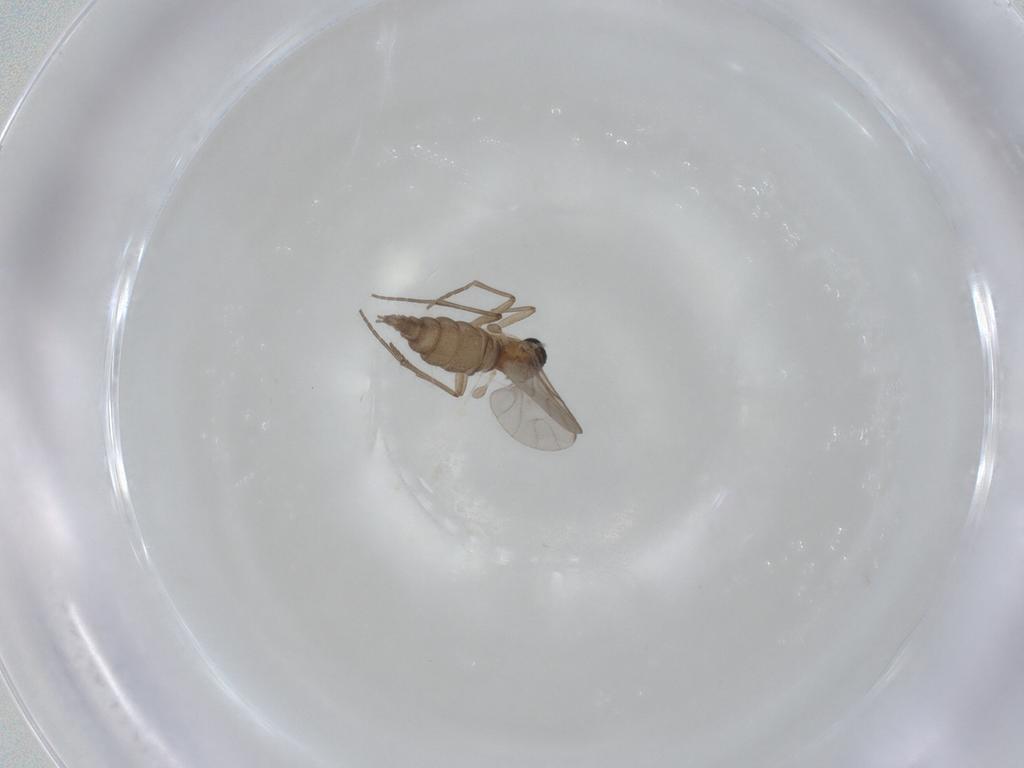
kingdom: Animalia
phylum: Arthropoda
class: Insecta
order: Diptera
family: Sciaridae
